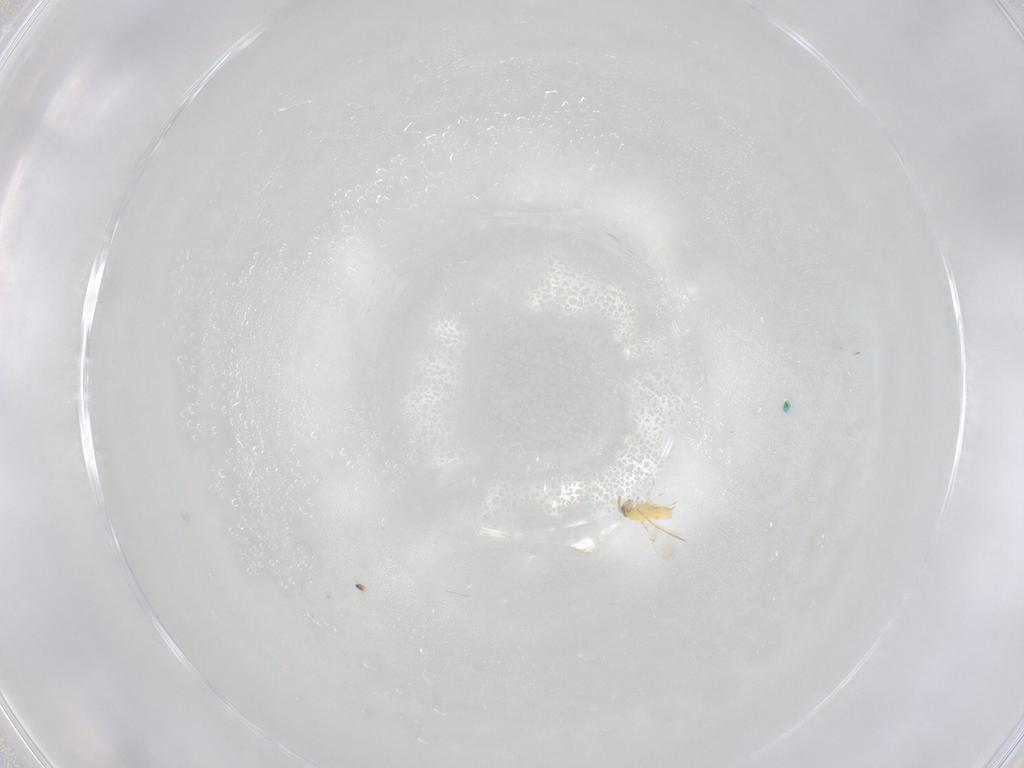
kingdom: Animalia
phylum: Arthropoda
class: Insecta
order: Hymenoptera
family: Trichogrammatidae
